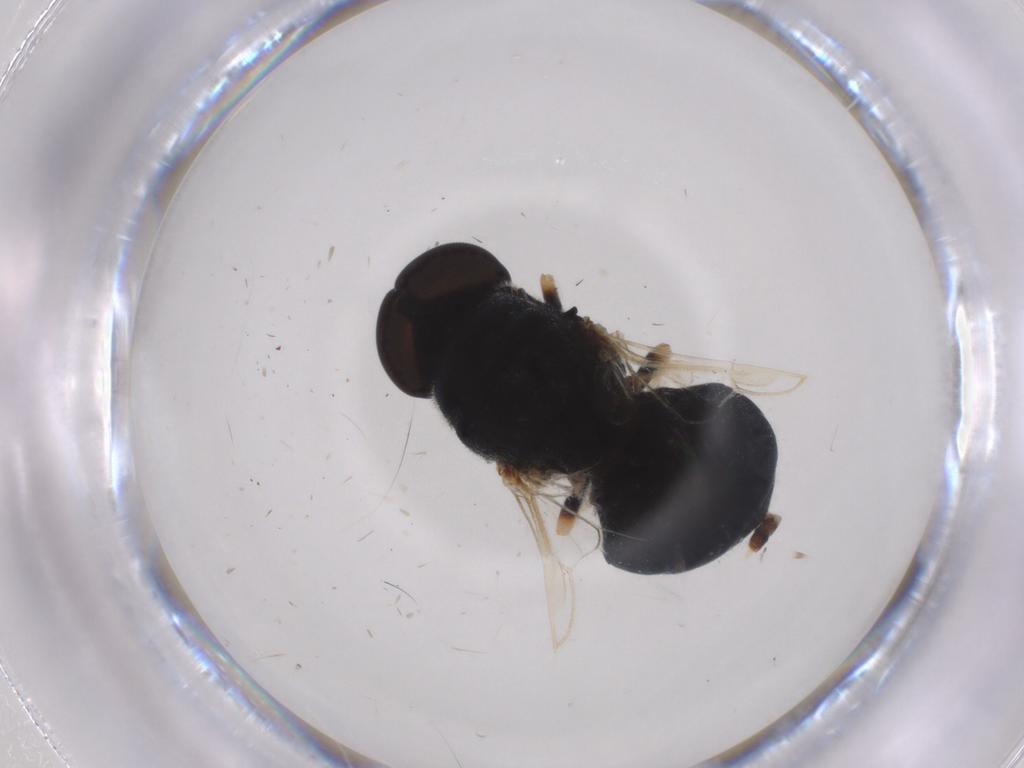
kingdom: Animalia
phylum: Arthropoda
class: Insecta
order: Diptera
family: Stratiomyidae
